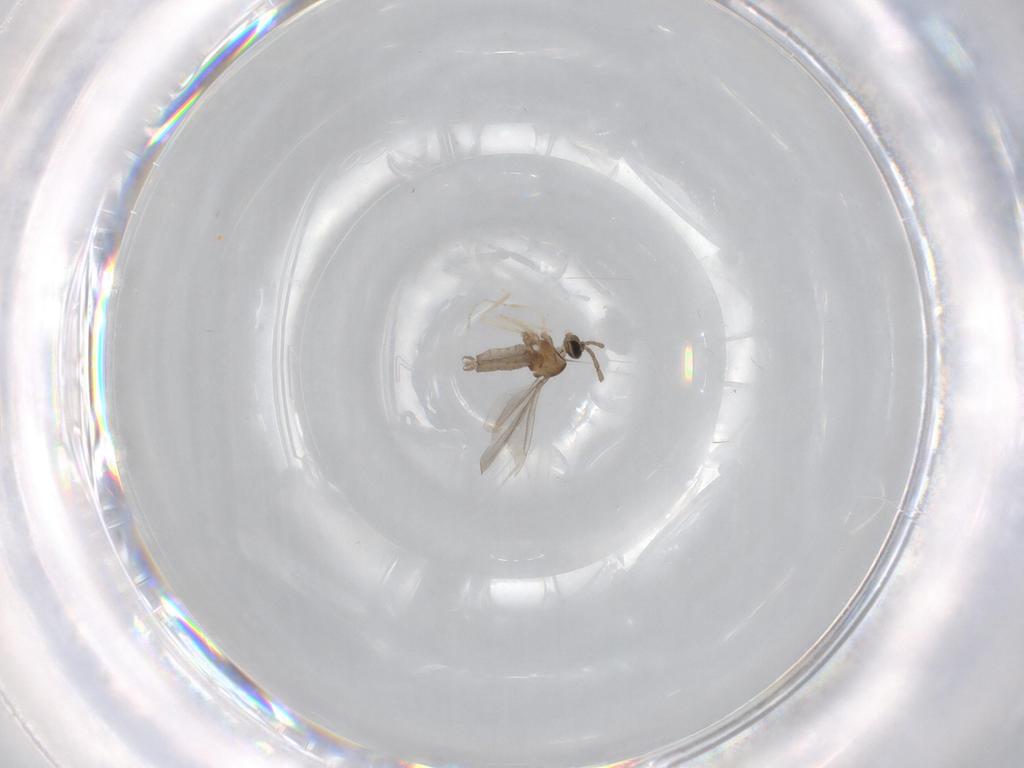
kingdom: Animalia
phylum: Arthropoda
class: Insecta
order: Diptera
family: Cecidomyiidae
